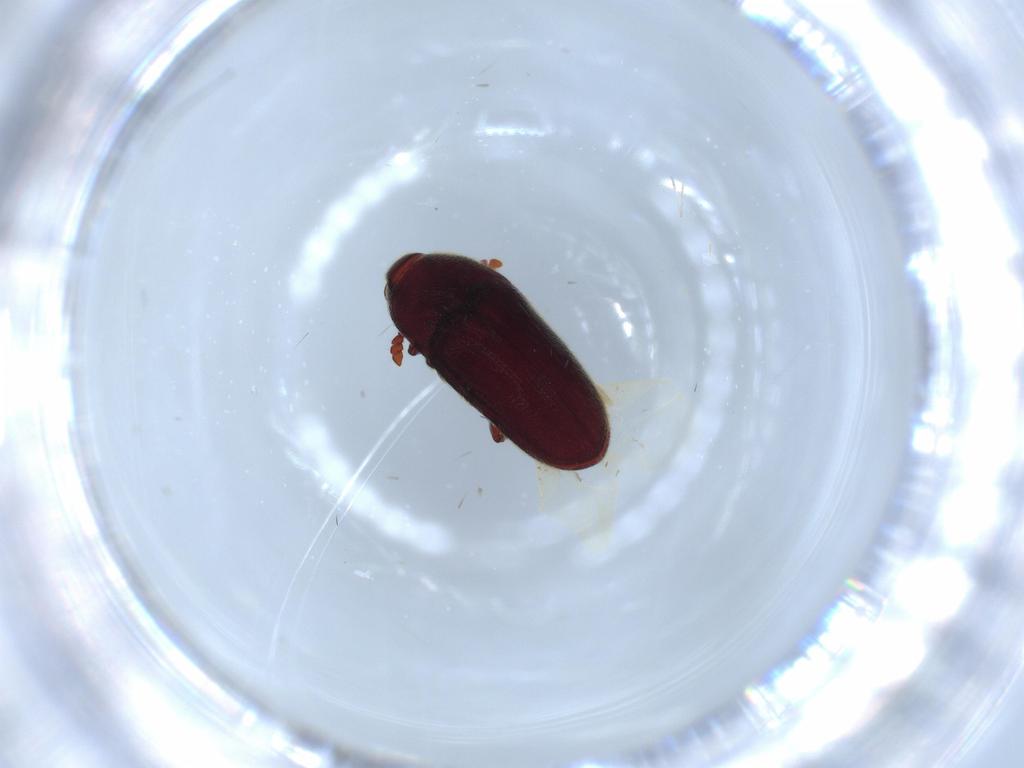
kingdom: Animalia
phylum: Arthropoda
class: Insecta
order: Coleoptera
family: Throscidae
